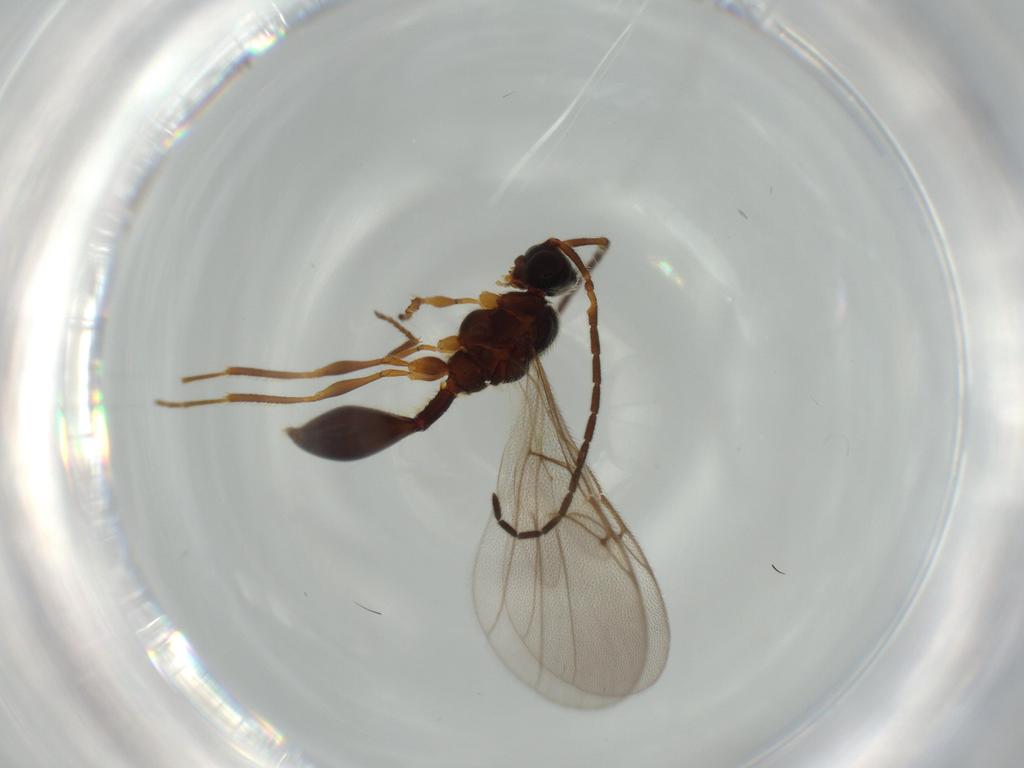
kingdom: Animalia
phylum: Arthropoda
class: Insecta
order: Hymenoptera
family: Diapriidae
